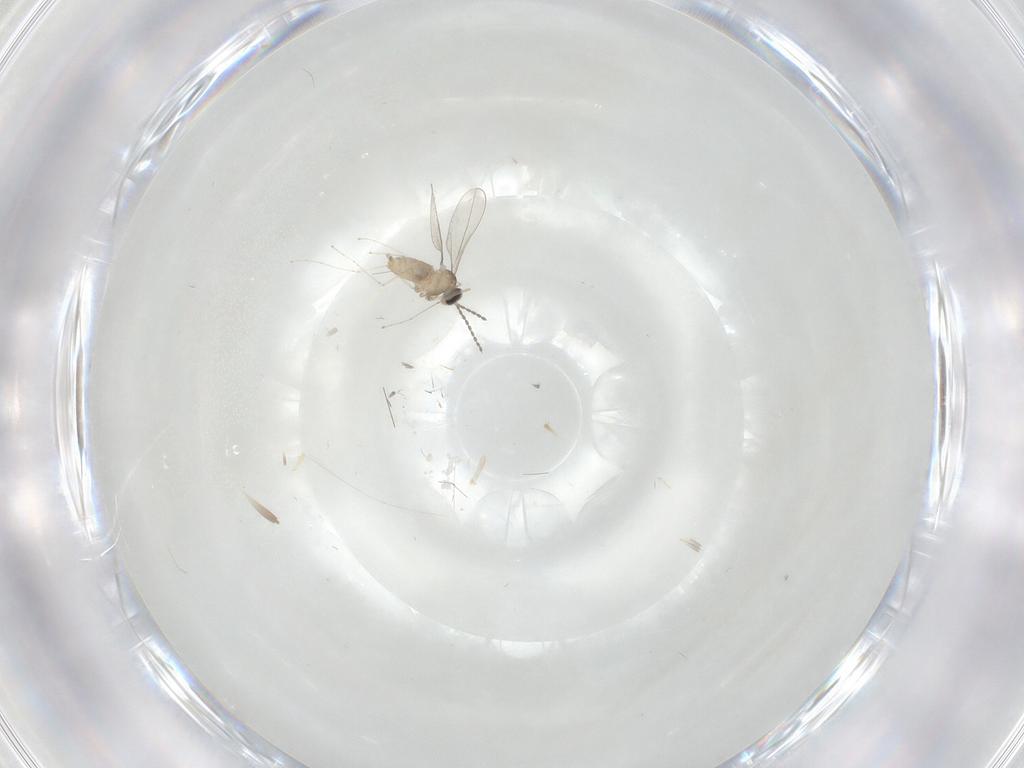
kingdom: Animalia
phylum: Arthropoda
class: Insecta
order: Diptera
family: Cecidomyiidae
